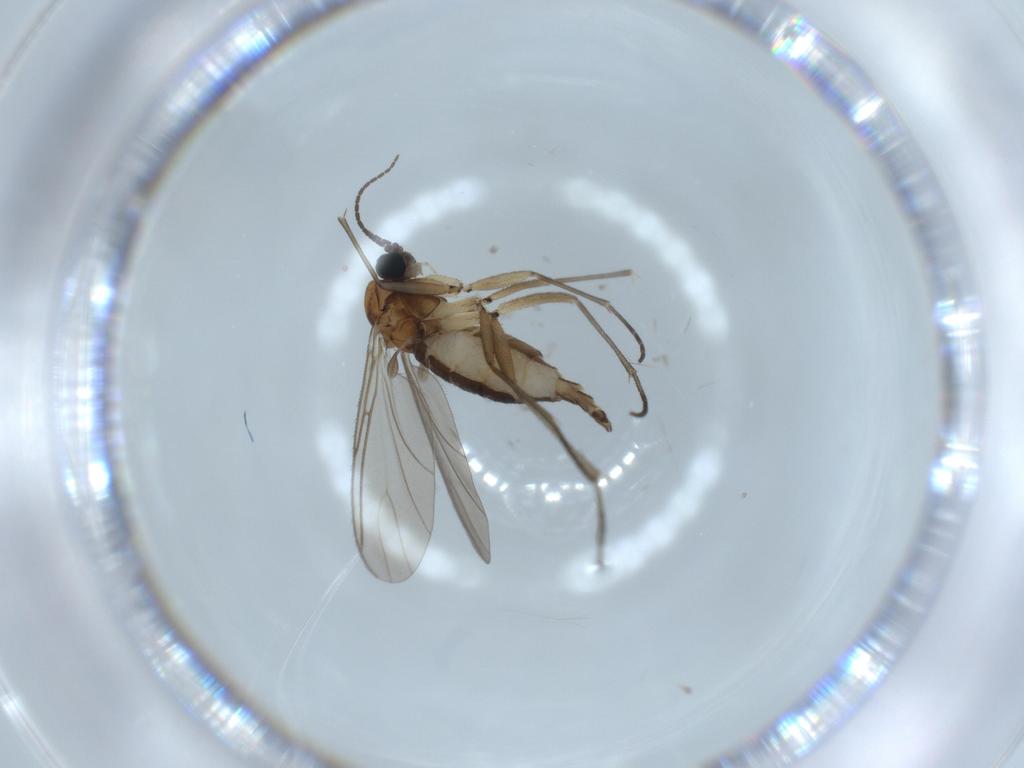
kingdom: Animalia
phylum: Arthropoda
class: Insecta
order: Diptera
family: Sciaridae
